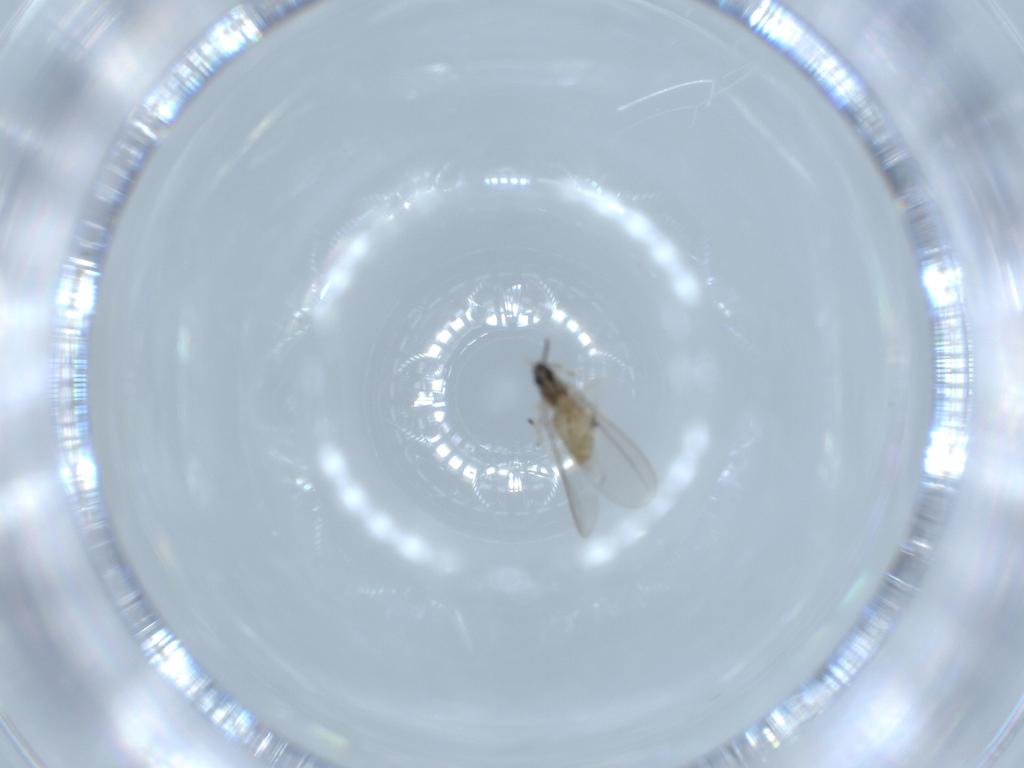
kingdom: Animalia
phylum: Arthropoda
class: Insecta
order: Diptera
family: Cecidomyiidae
